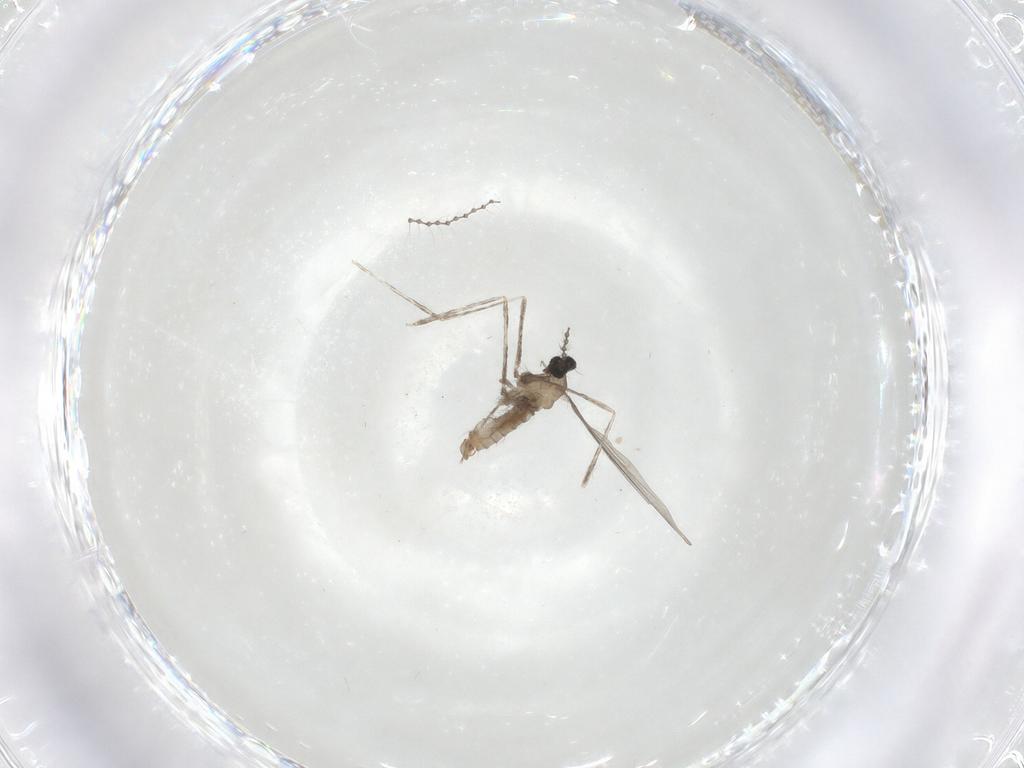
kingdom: Animalia
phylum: Arthropoda
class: Insecta
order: Diptera
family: Cecidomyiidae
